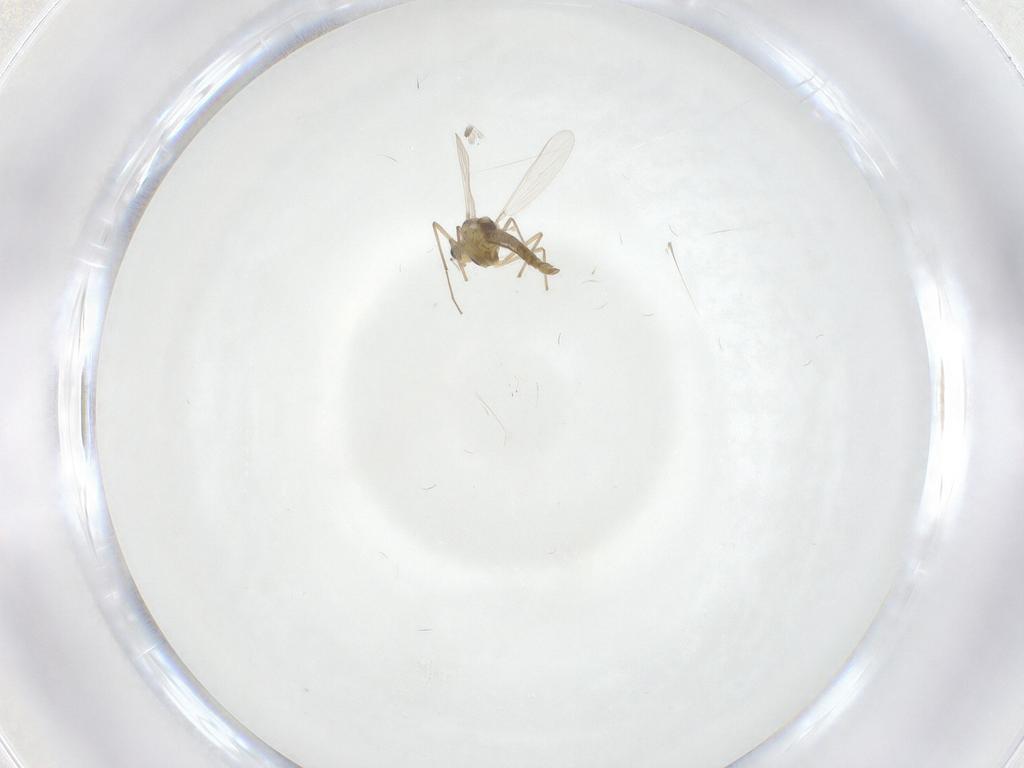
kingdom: Animalia
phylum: Arthropoda
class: Insecta
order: Diptera
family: Chironomidae
